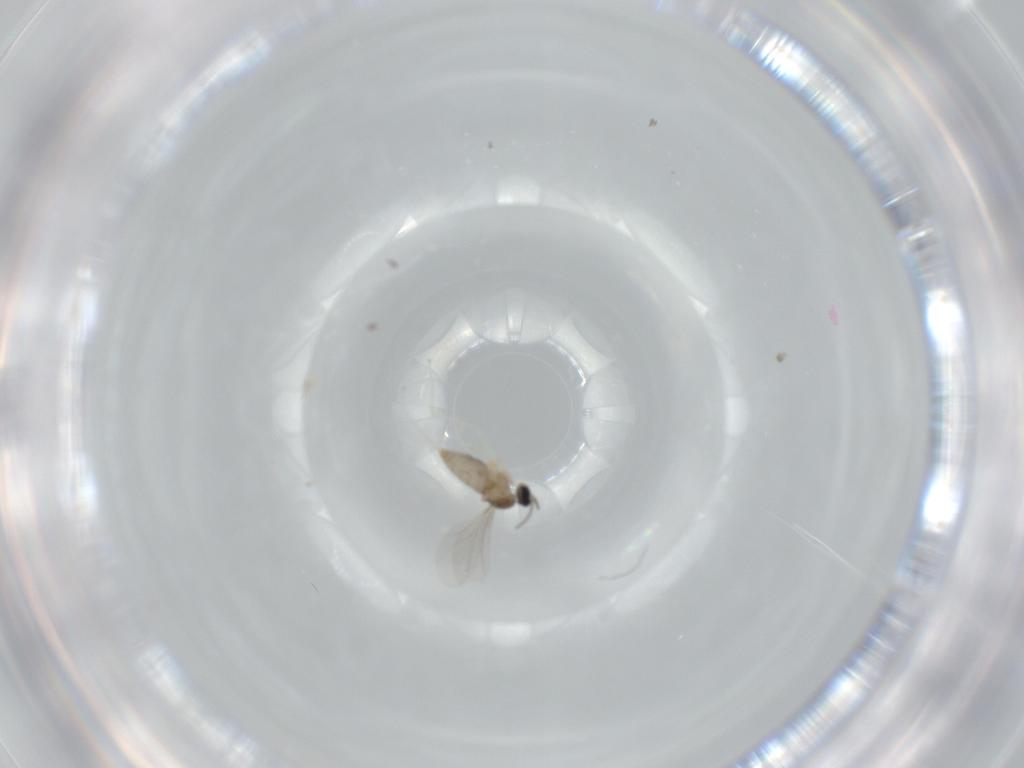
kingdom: Animalia
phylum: Arthropoda
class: Insecta
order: Diptera
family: Cecidomyiidae
